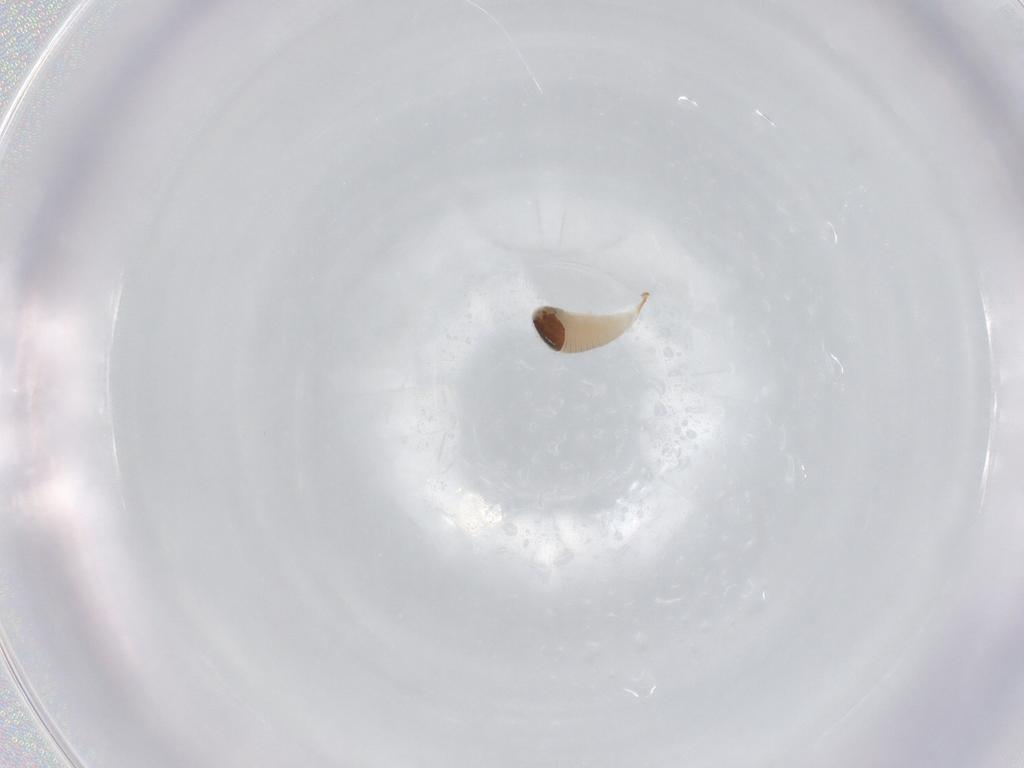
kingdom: Animalia
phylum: Arthropoda
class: Insecta
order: Hymenoptera
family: Ichneumonidae
